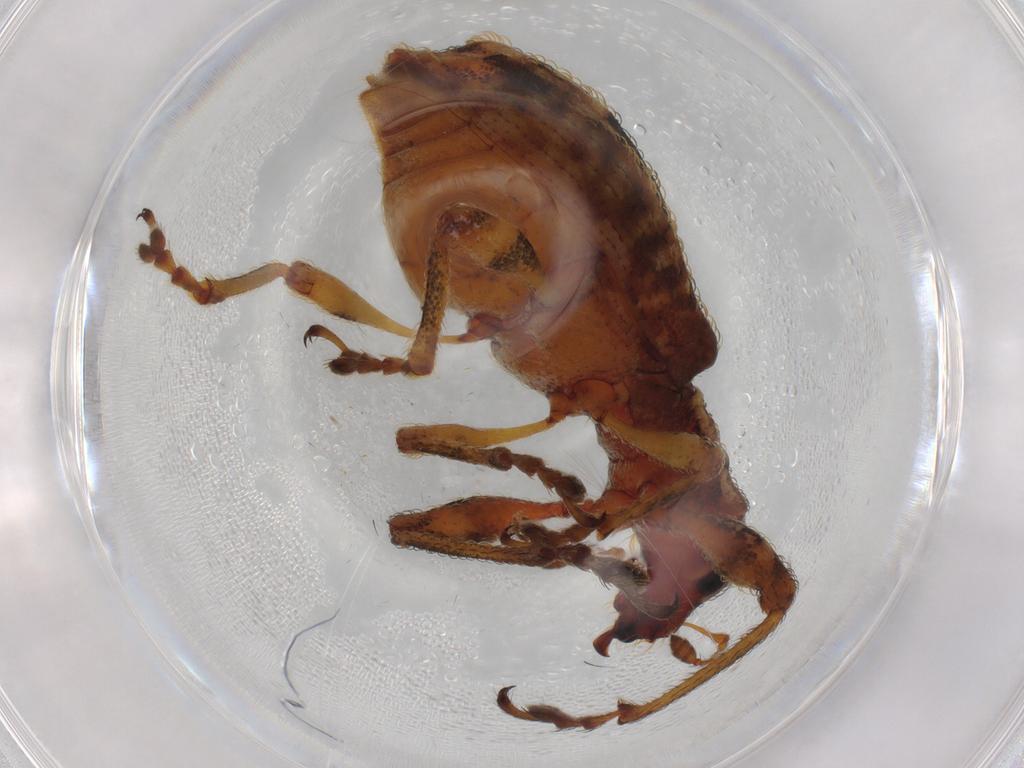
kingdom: Animalia
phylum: Arthropoda
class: Insecta
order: Coleoptera
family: Curculionidae
